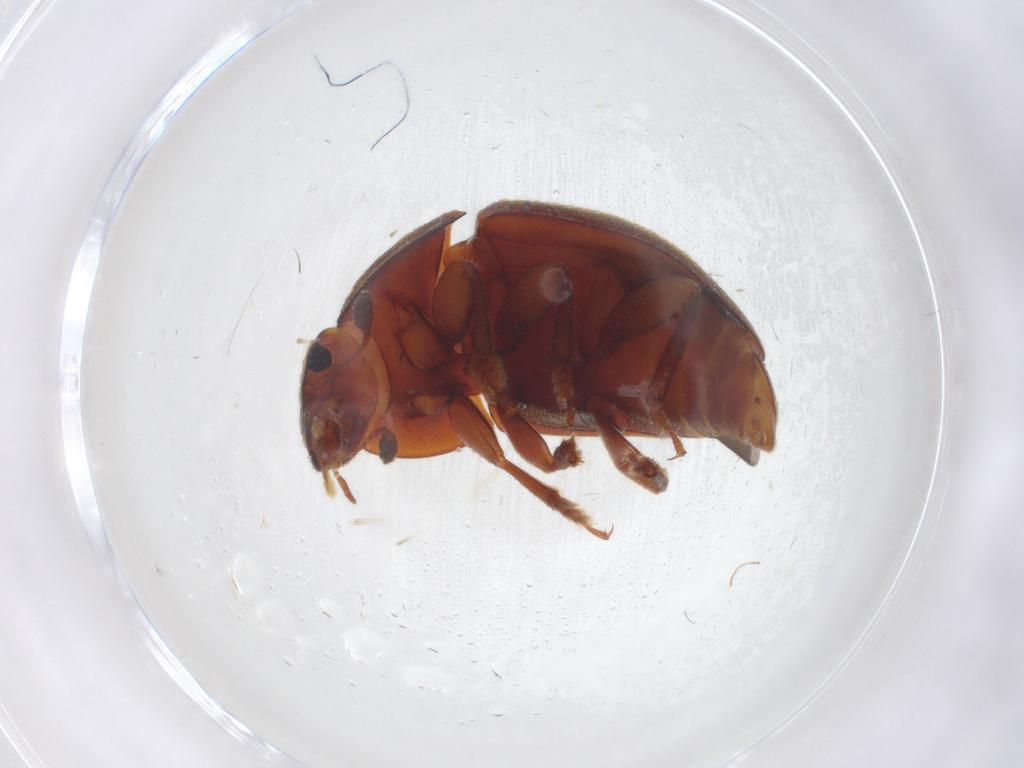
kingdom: Animalia
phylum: Arthropoda
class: Insecta
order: Coleoptera
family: Nitidulidae
